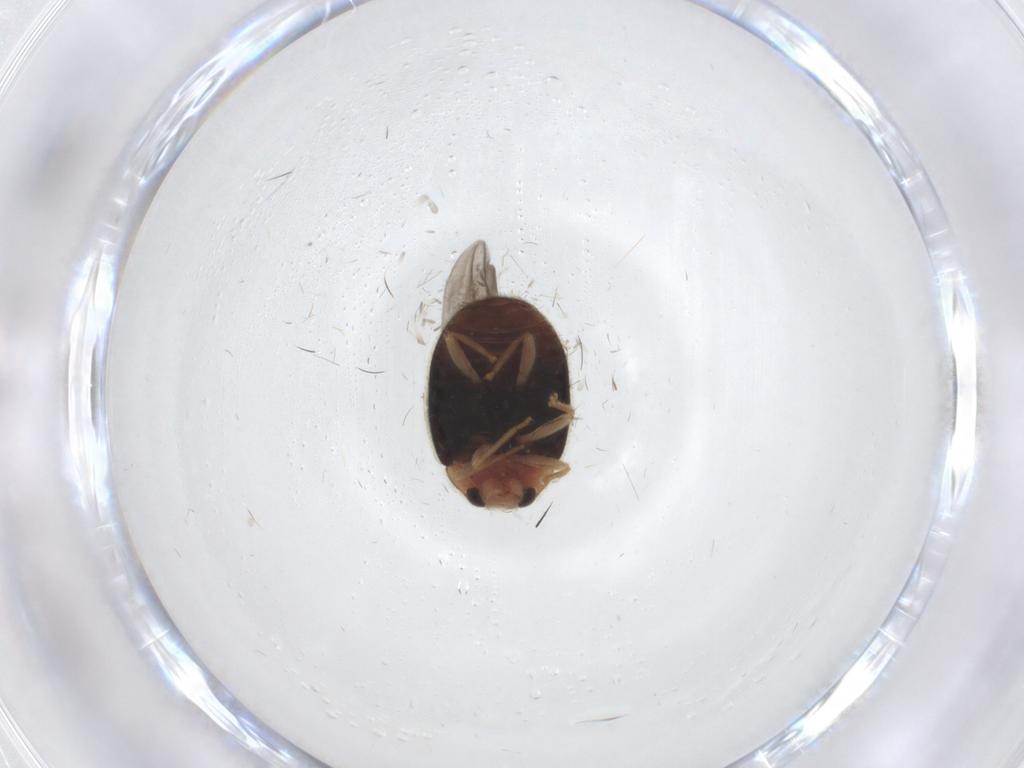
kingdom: Animalia
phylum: Arthropoda
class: Insecta
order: Coleoptera
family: Coccinellidae
